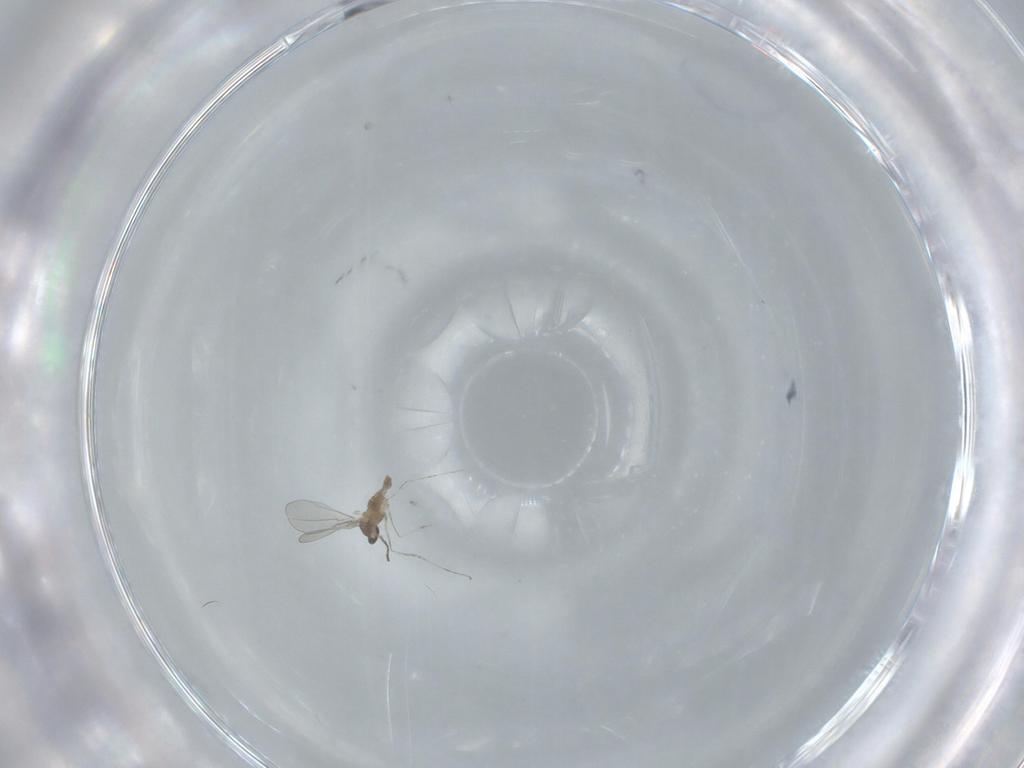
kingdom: Animalia
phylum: Arthropoda
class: Insecta
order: Diptera
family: Cecidomyiidae
